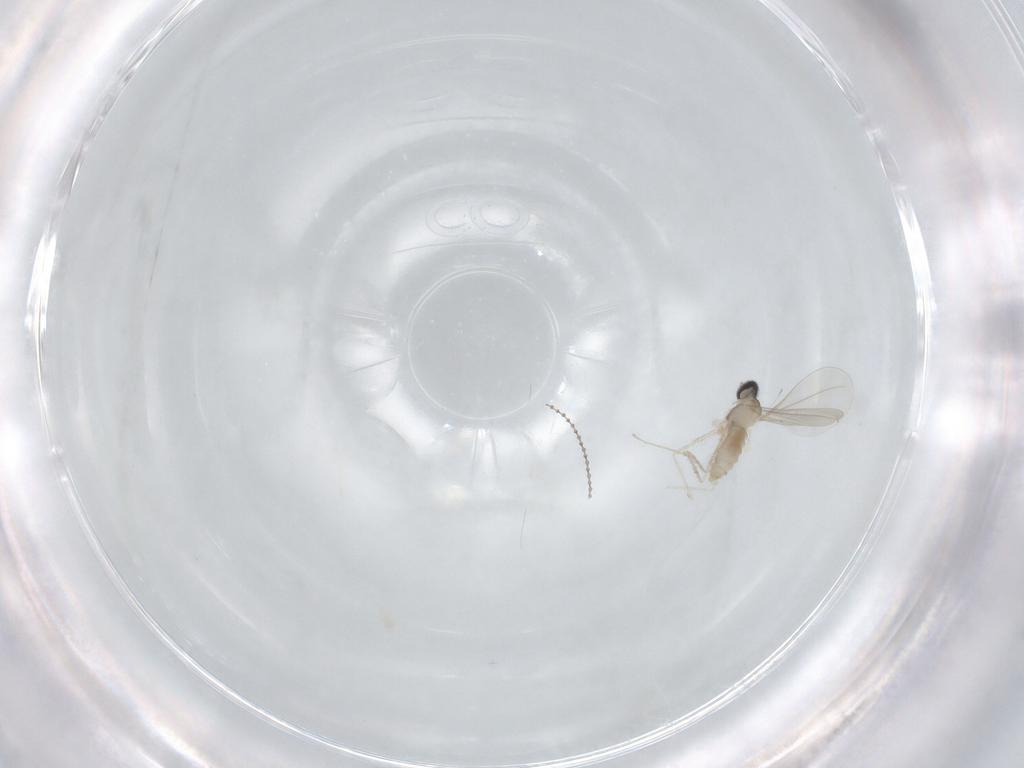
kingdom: Animalia
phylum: Arthropoda
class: Insecta
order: Diptera
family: Cecidomyiidae
